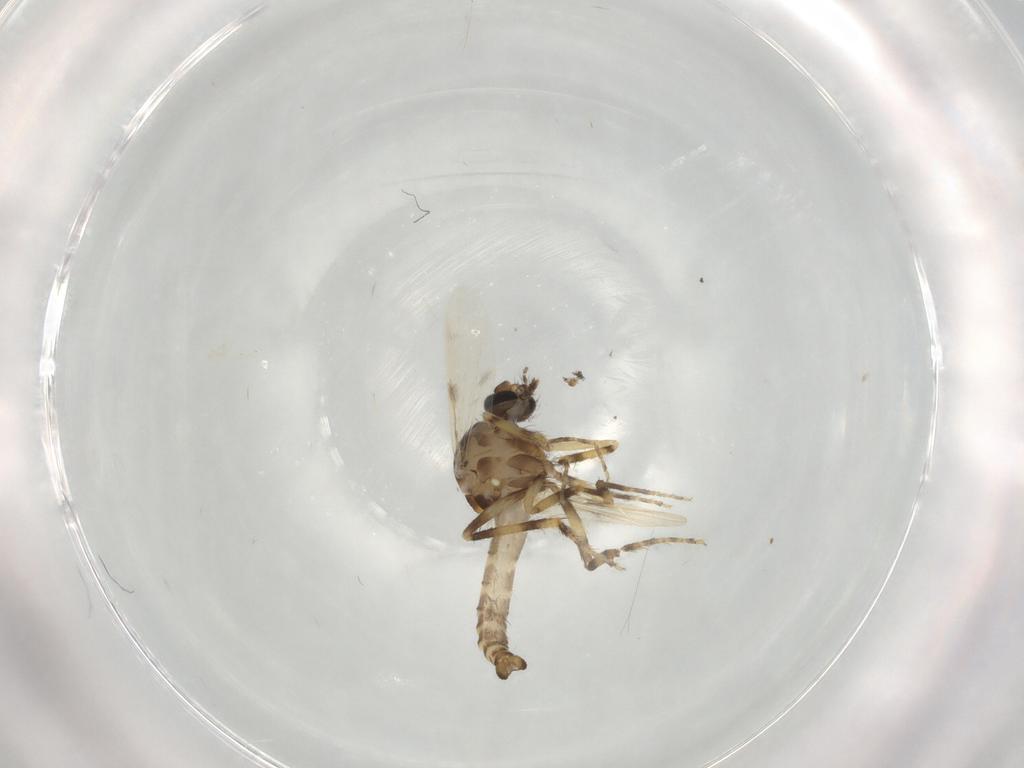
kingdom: Animalia
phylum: Arthropoda
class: Insecta
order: Diptera
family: Ceratopogonidae
